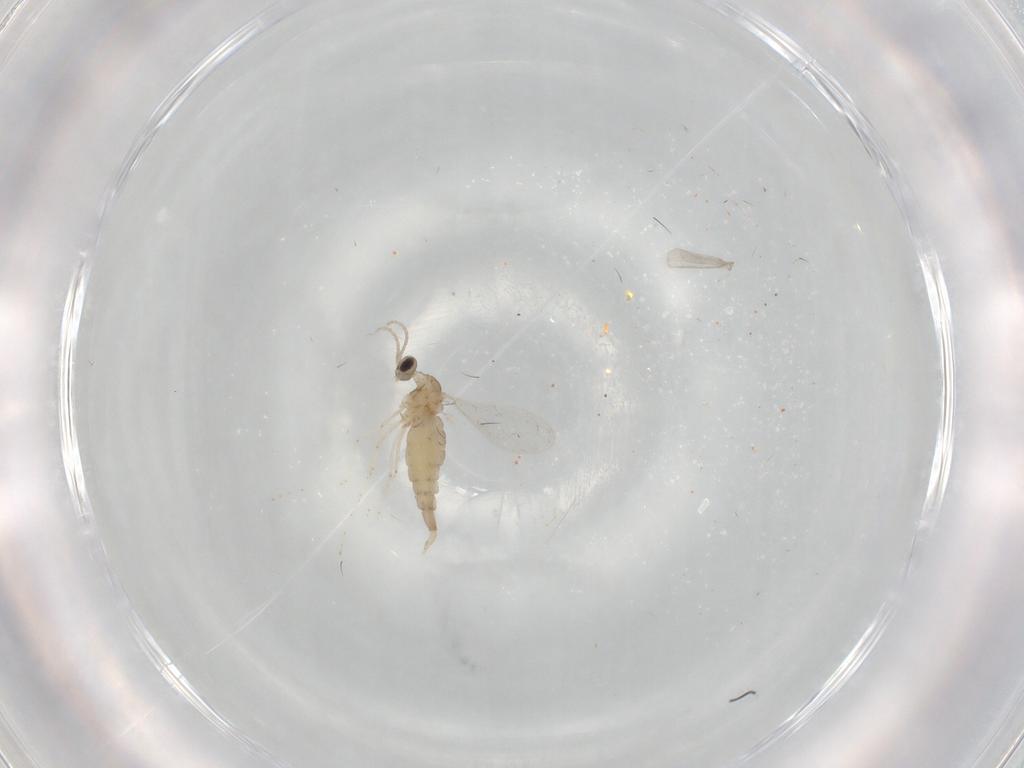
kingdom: Animalia
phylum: Arthropoda
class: Insecta
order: Diptera
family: Cecidomyiidae
